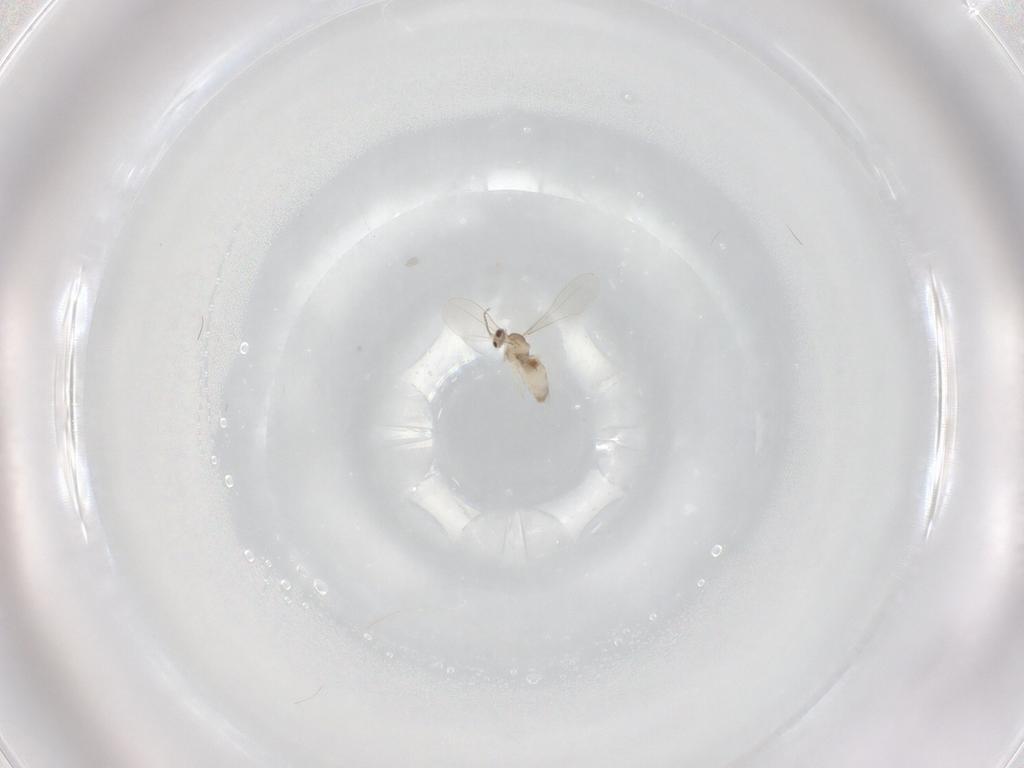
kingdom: Animalia
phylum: Arthropoda
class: Insecta
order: Diptera
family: Cecidomyiidae
